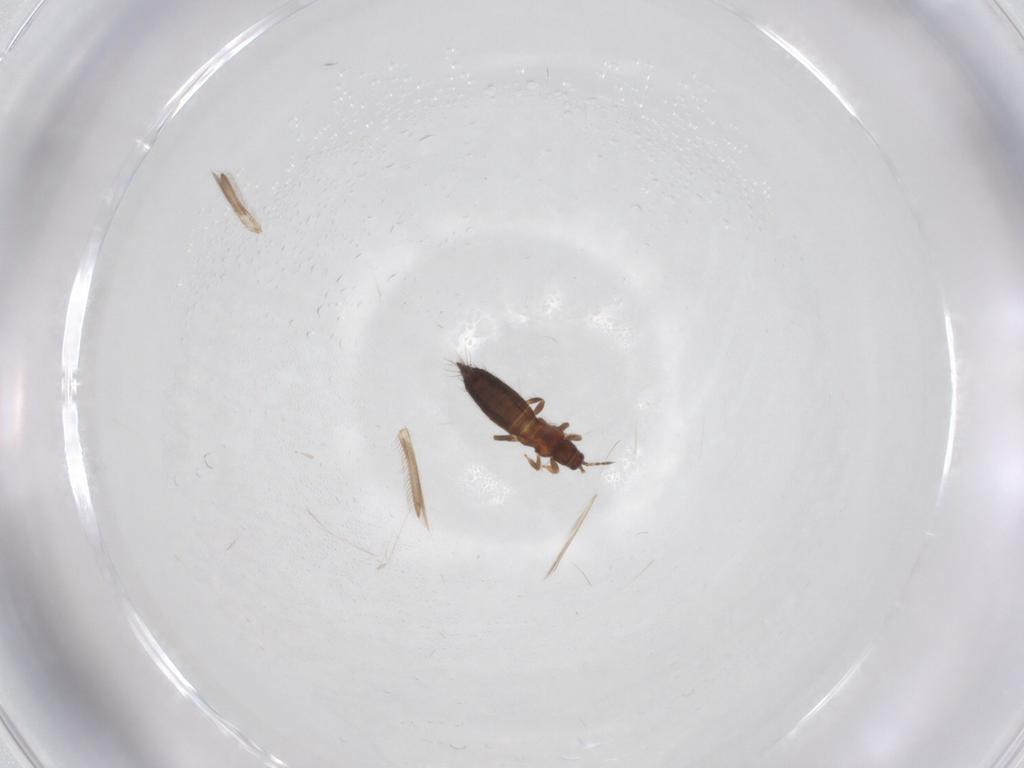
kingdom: Animalia
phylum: Arthropoda
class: Insecta
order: Thysanoptera
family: Thripidae
